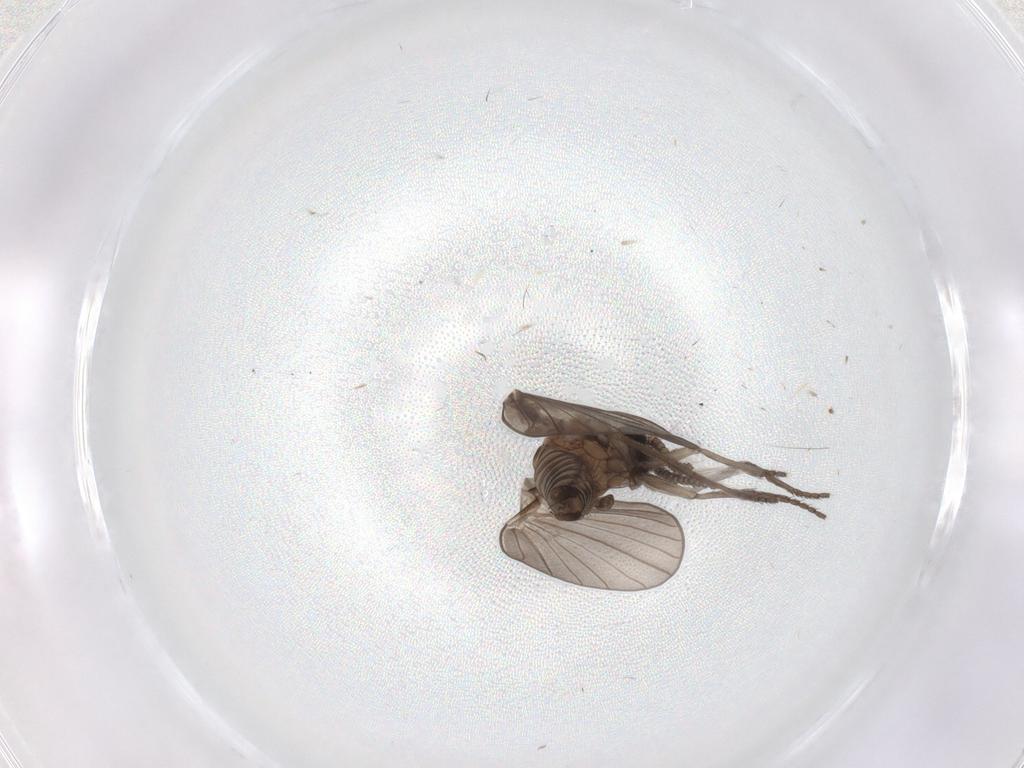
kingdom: Animalia
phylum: Arthropoda
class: Insecta
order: Diptera
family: Psychodidae
